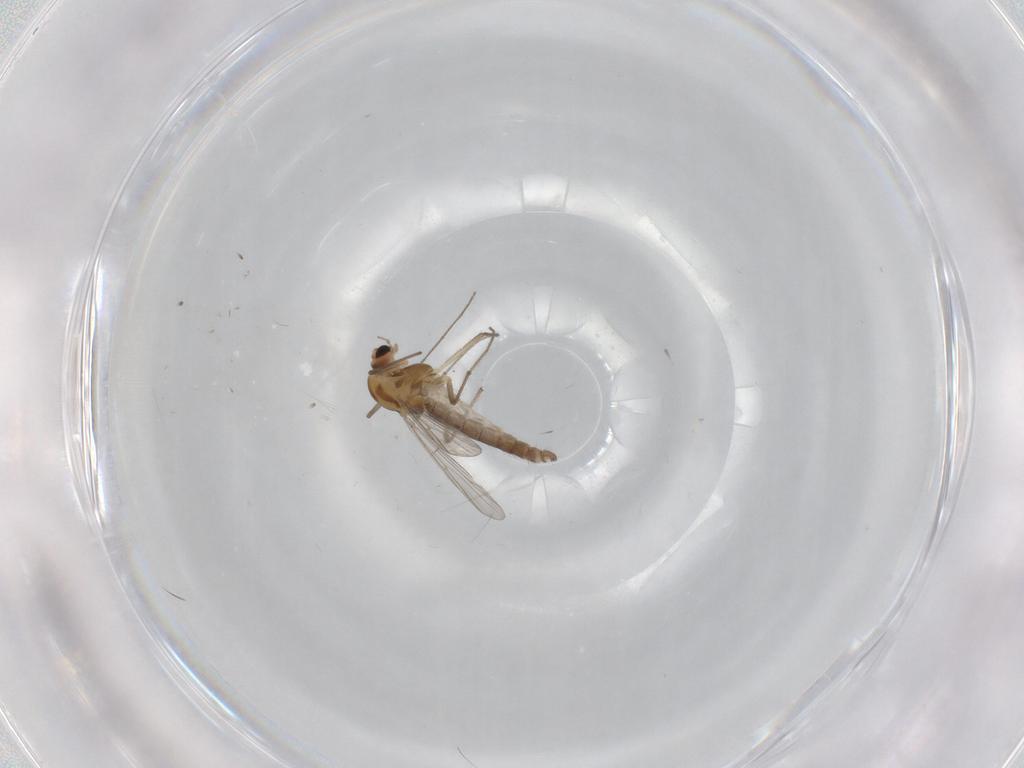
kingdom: Animalia
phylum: Arthropoda
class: Insecta
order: Diptera
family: Chironomidae
